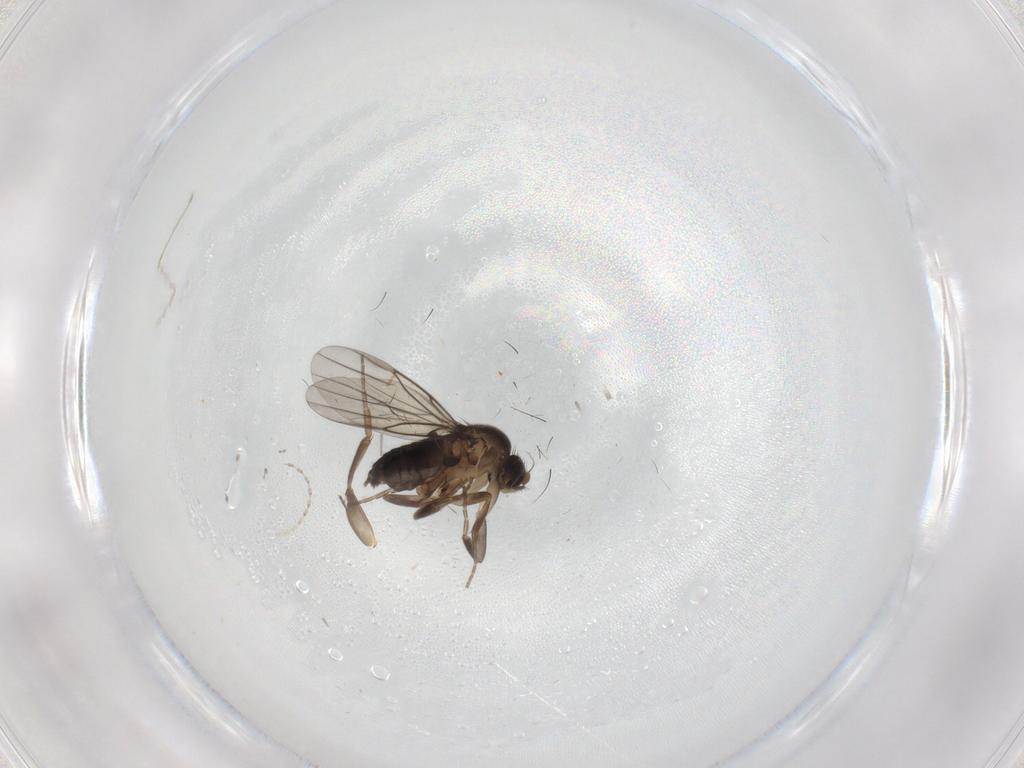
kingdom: Animalia
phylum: Arthropoda
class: Insecta
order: Diptera
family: Phoridae
